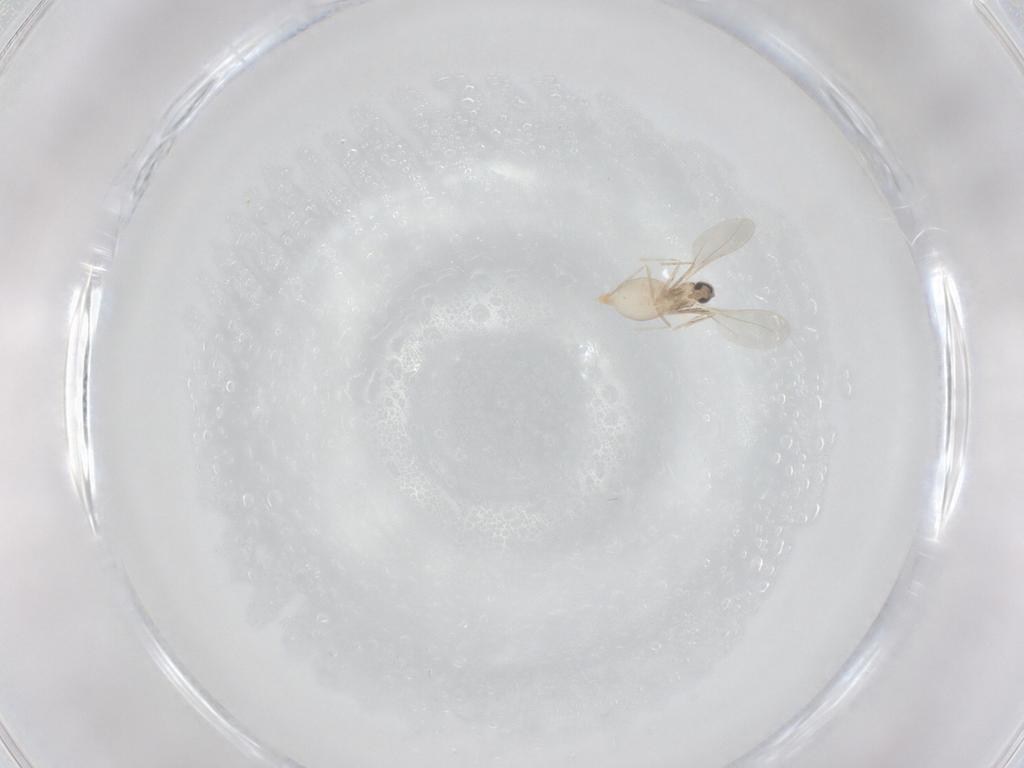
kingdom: Animalia
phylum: Arthropoda
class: Insecta
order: Diptera
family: Cecidomyiidae
